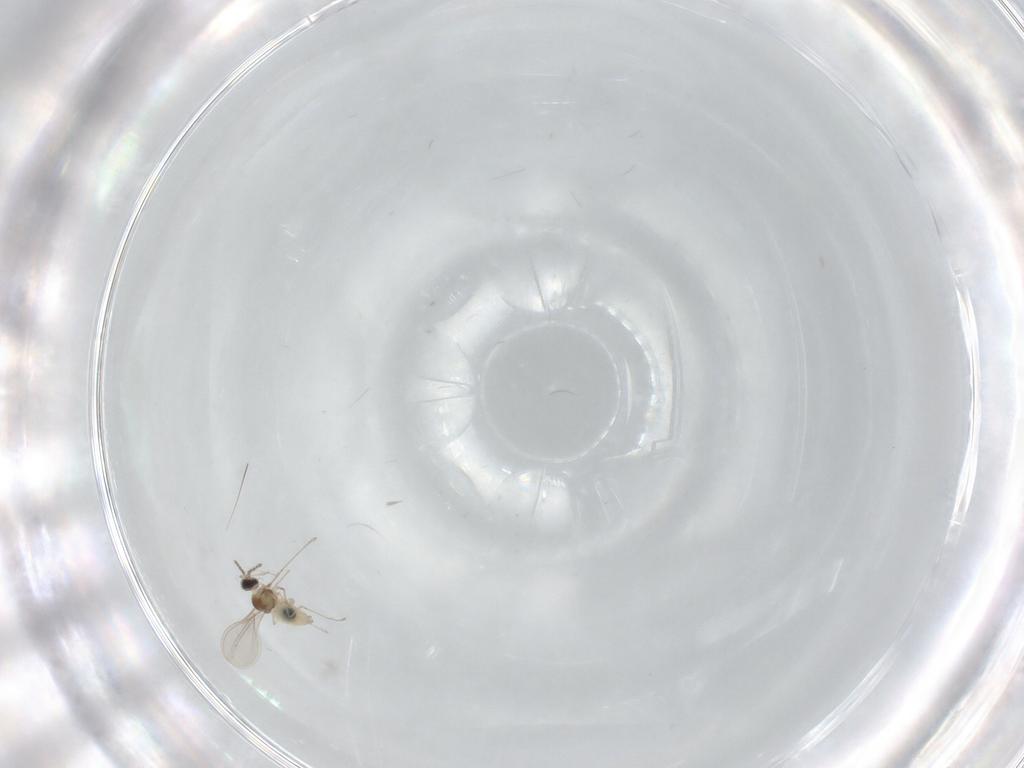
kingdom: Animalia
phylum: Arthropoda
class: Insecta
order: Diptera
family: Cecidomyiidae
